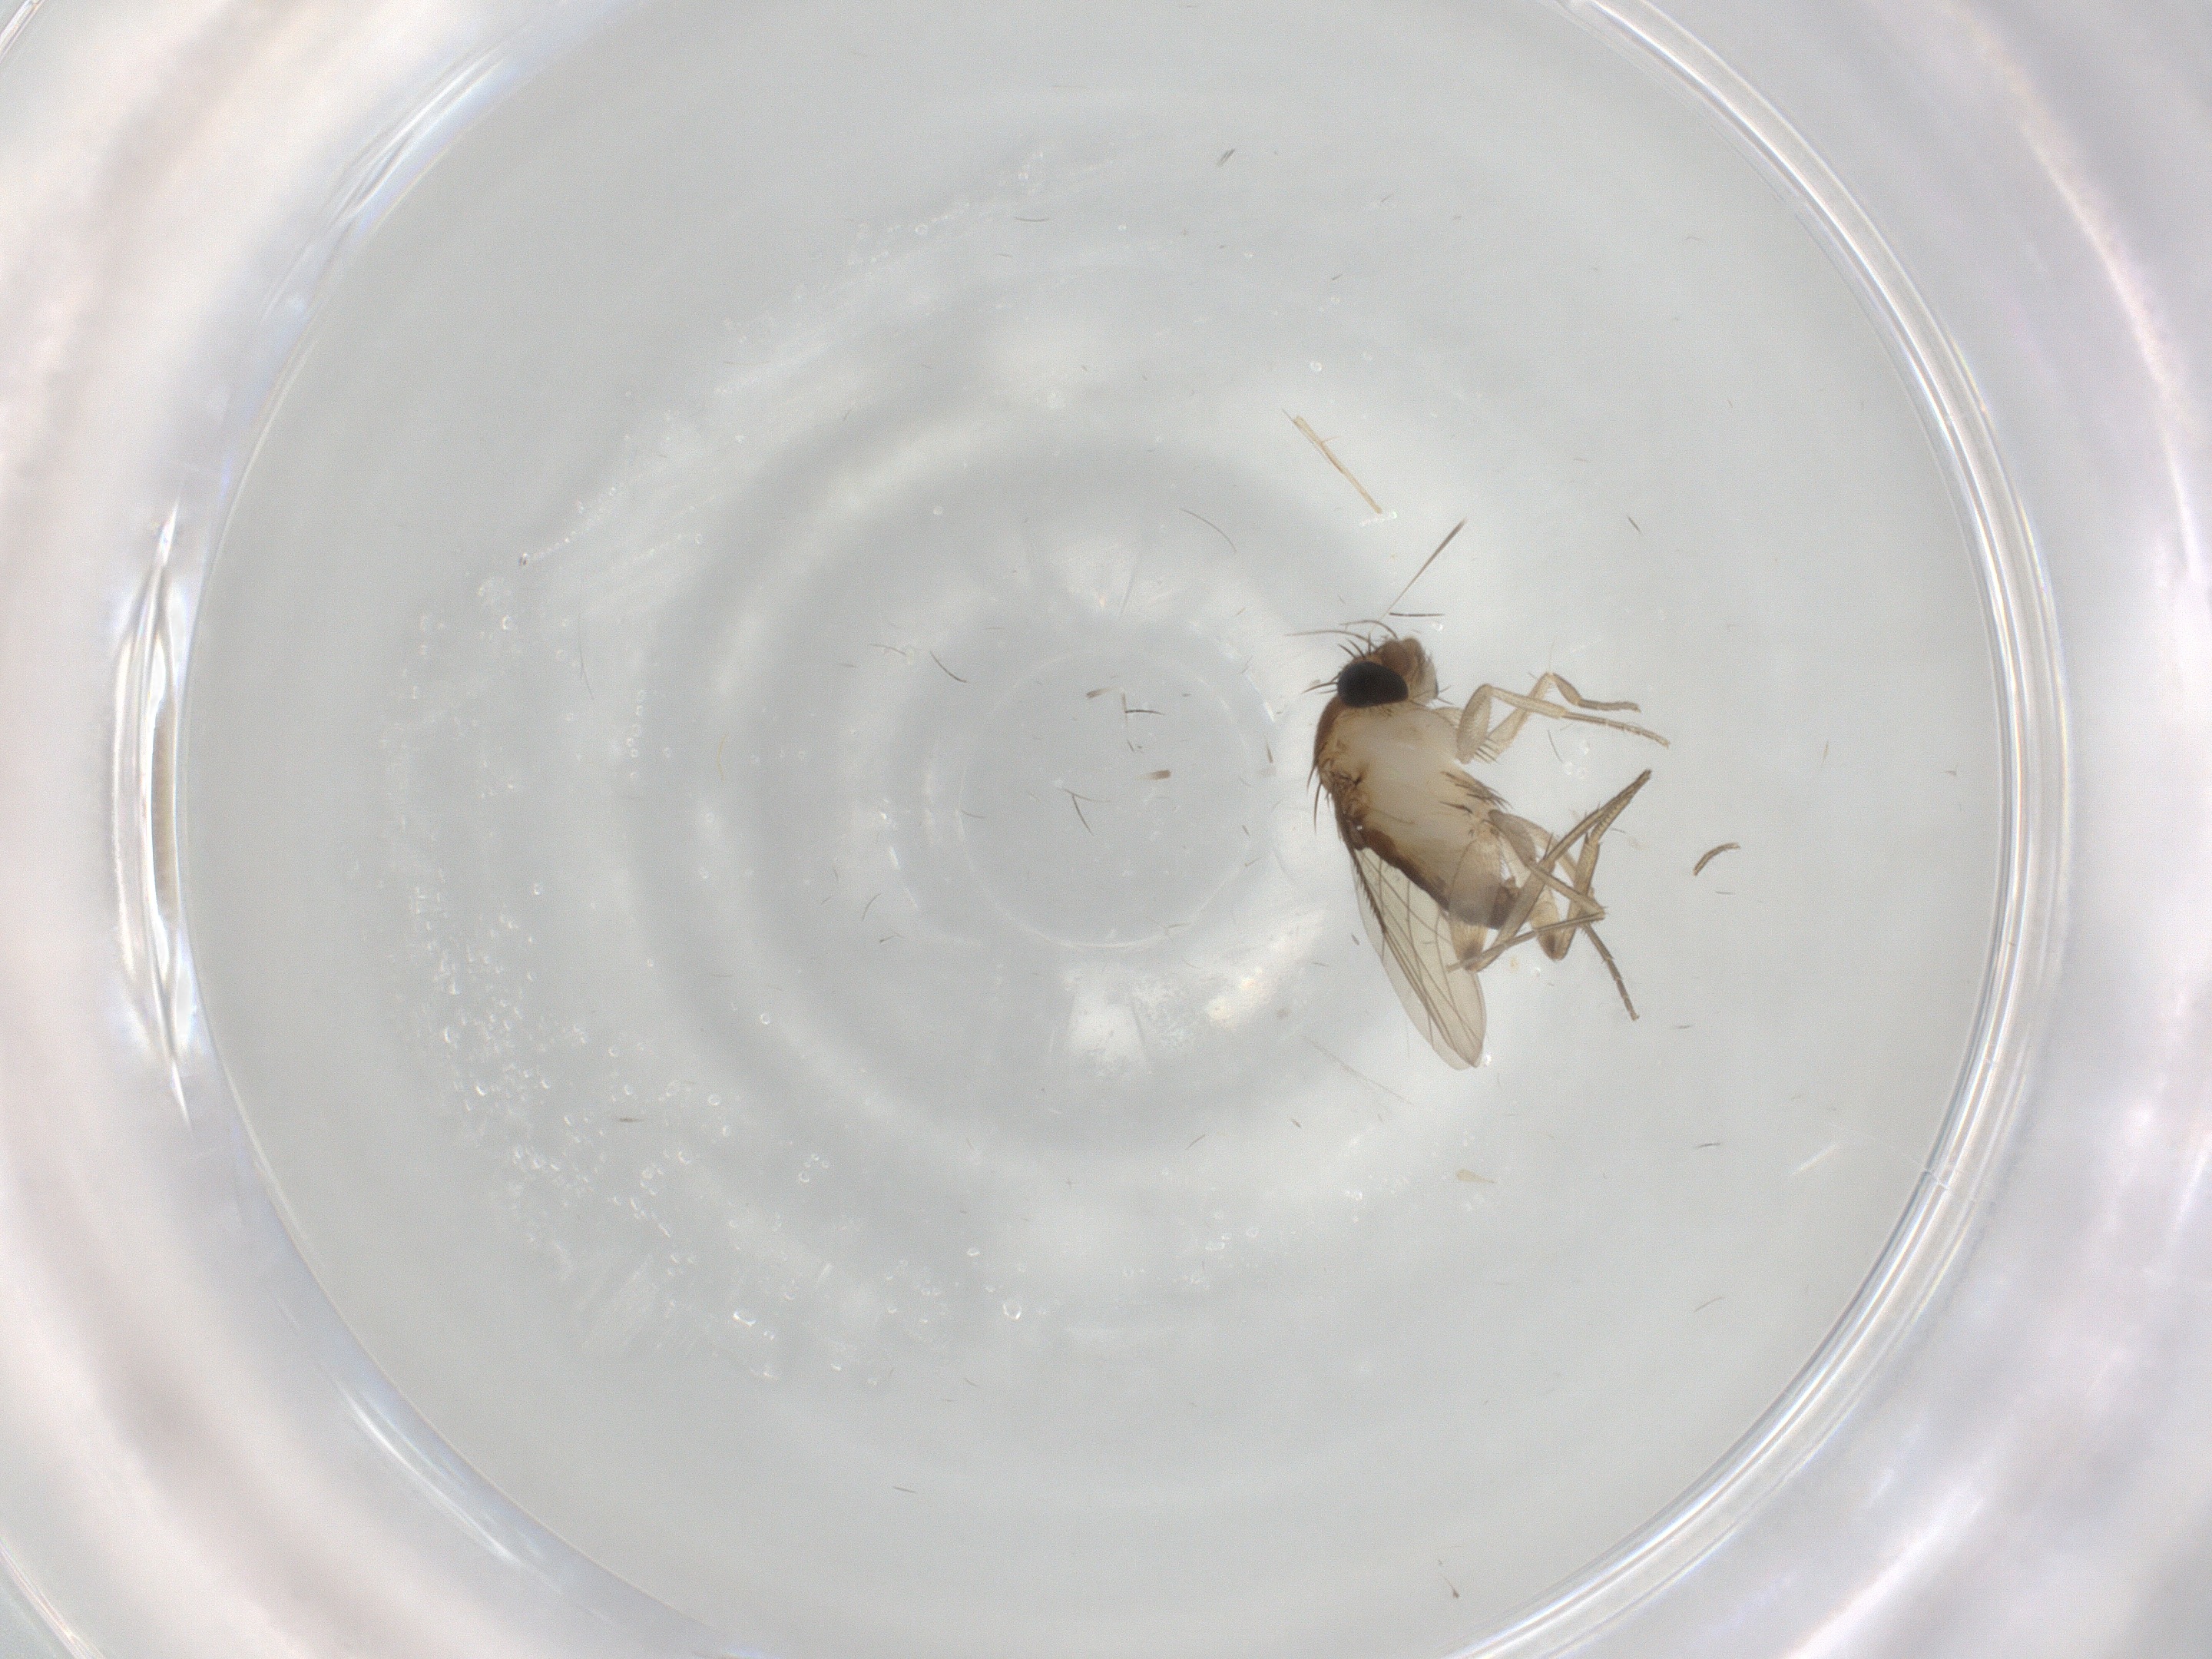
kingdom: Animalia
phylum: Arthropoda
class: Insecta
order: Diptera
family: Phoridae
